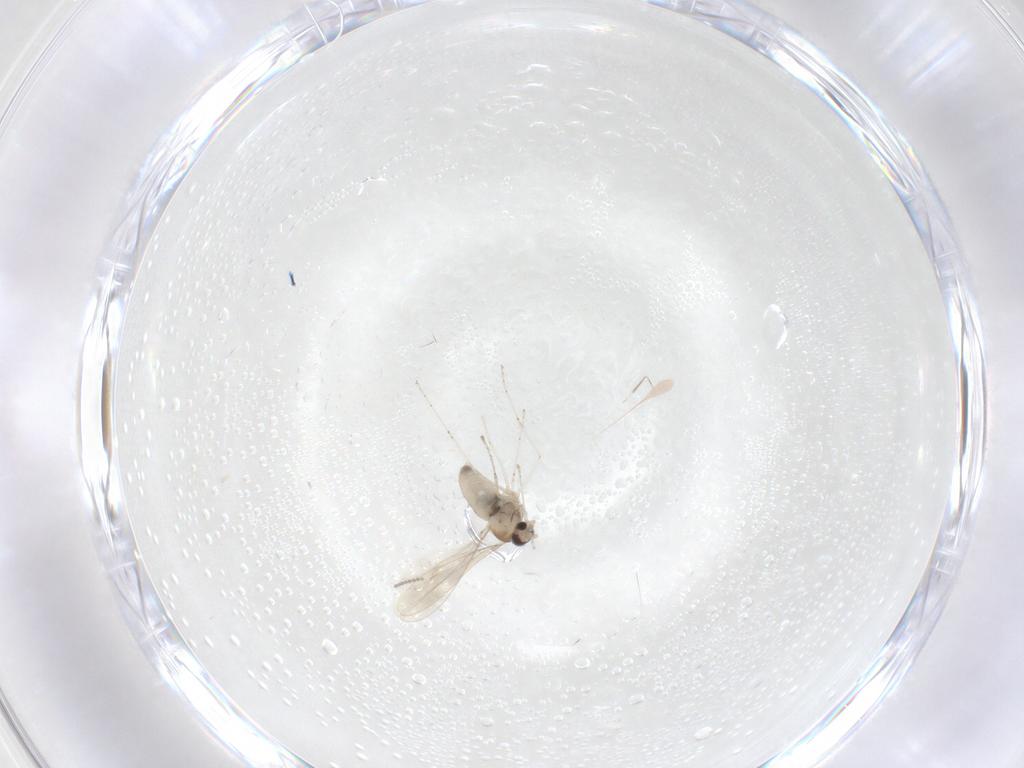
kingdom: Animalia
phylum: Arthropoda
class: Insecta
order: Diptera
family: Cecidomyiidae
